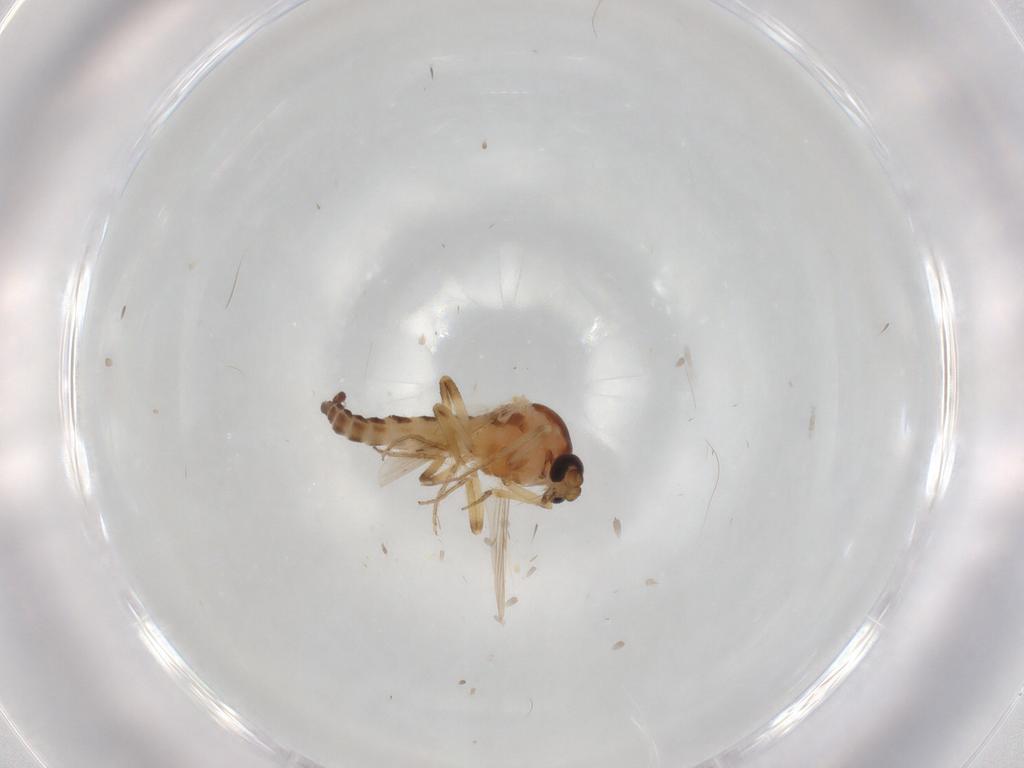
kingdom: Animalia
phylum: Arthropoda
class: Insecta
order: Diptera
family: Ceratopogonidae
